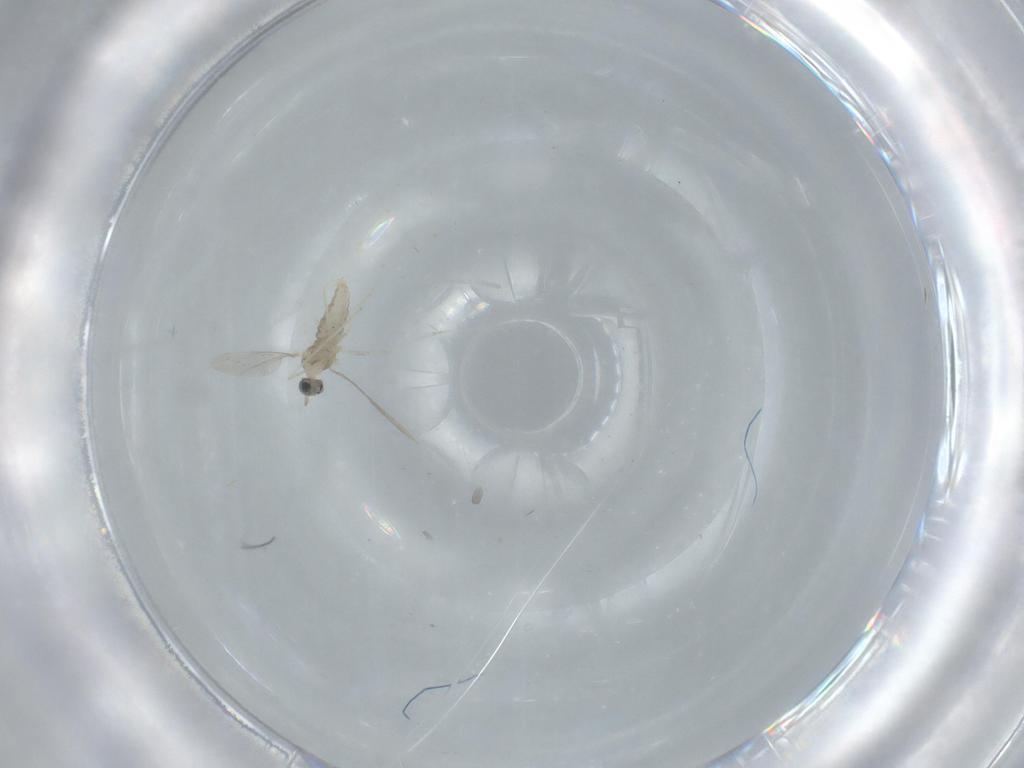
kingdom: Animalia
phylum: Arthropoda
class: Insecta
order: Diptera
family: Cecidomyiidae
